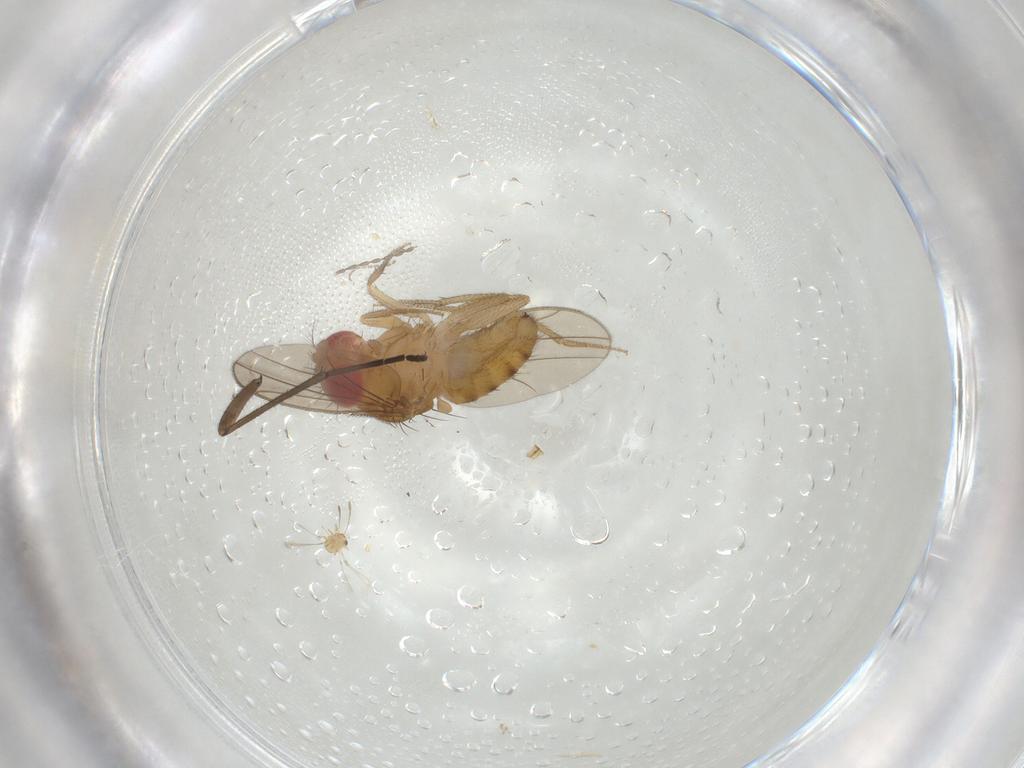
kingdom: Animalia
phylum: Arthropoda
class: Insecta
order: Diptera
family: Drosophilidae
